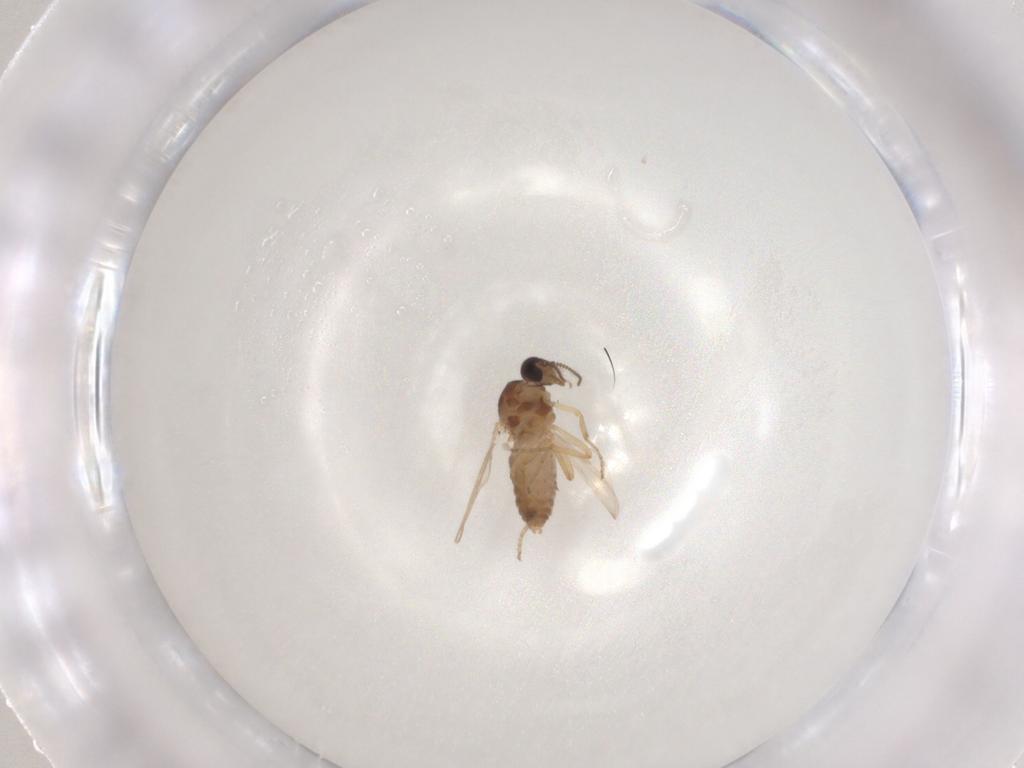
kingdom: Animalia
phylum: Arthropoda
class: Insecta
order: Diptera
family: Ceratopogonidae
